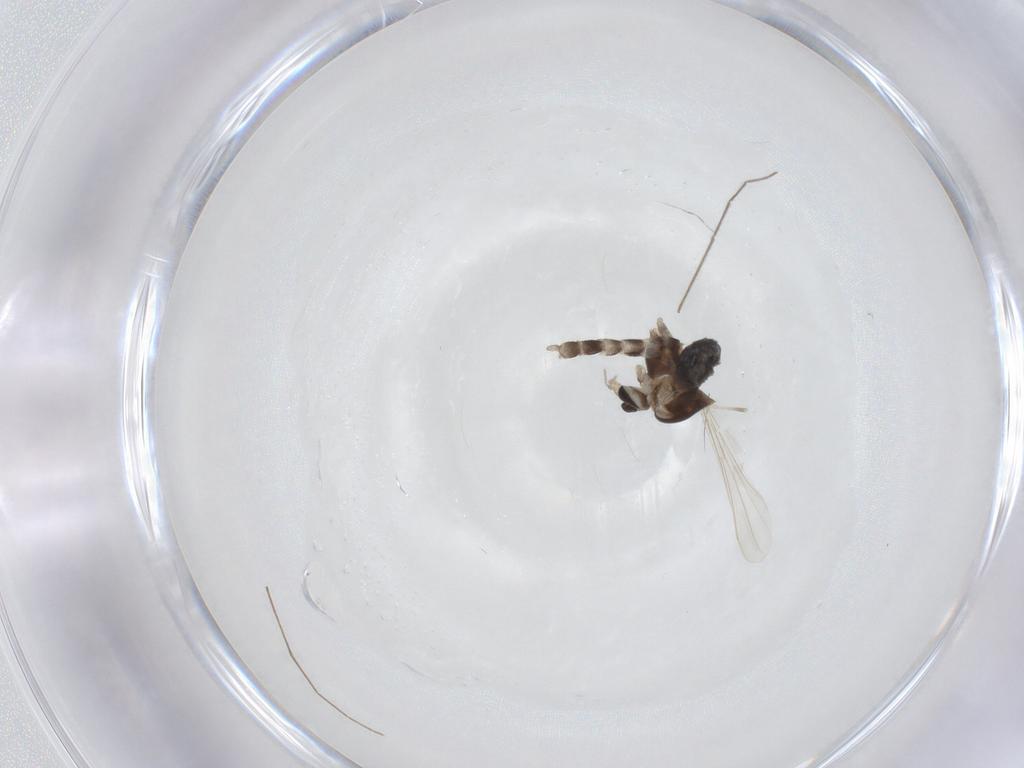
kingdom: Animalia
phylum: Arthropoda
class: Insecta
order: Diptera
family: Chironomidae
